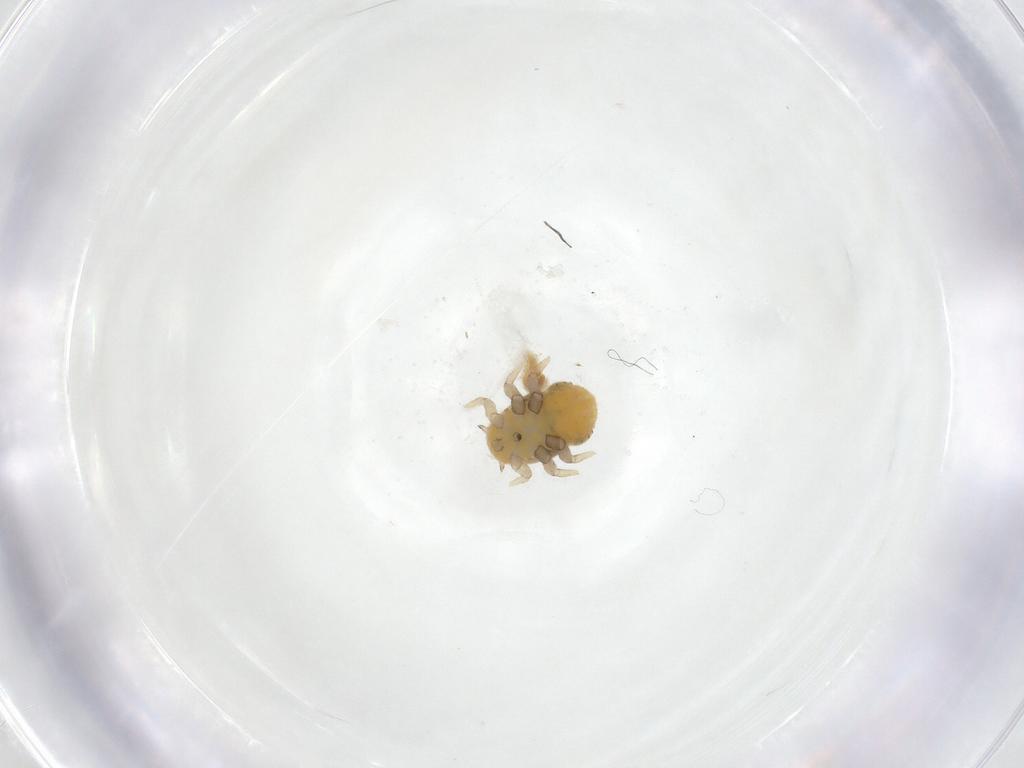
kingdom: Animalia
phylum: Arthropoda
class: Insecta
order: Hemiptera
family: Triozidae
